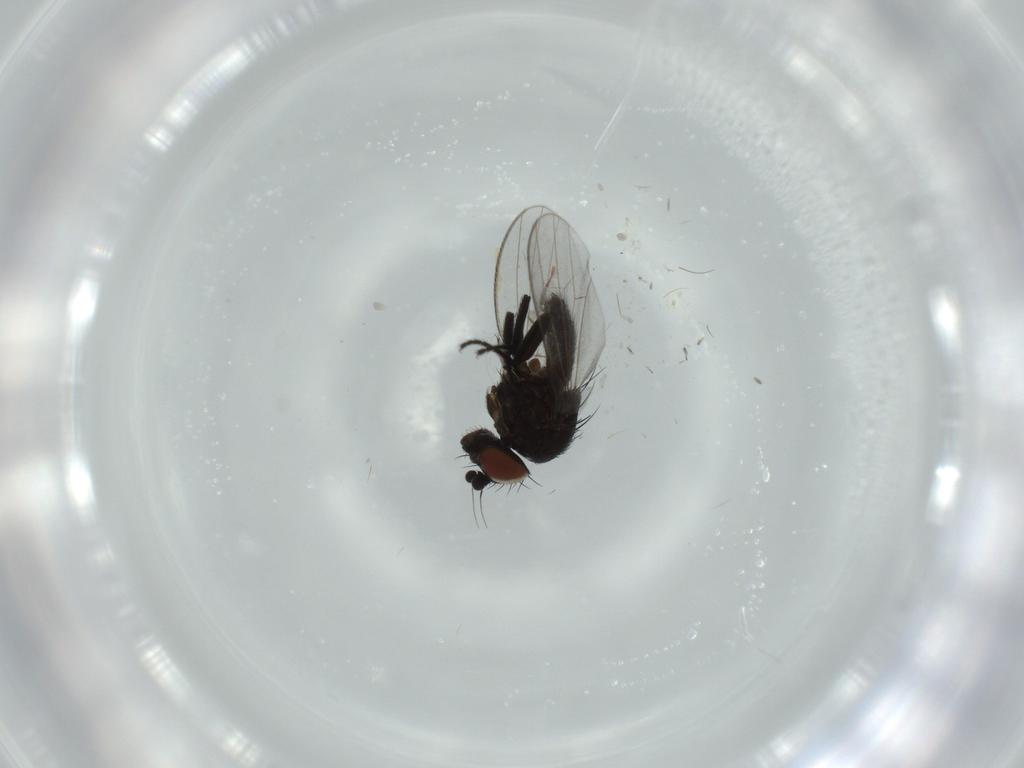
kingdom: Animalia
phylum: Arthropoda
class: Insecta
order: Diptera
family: Milichiidae
